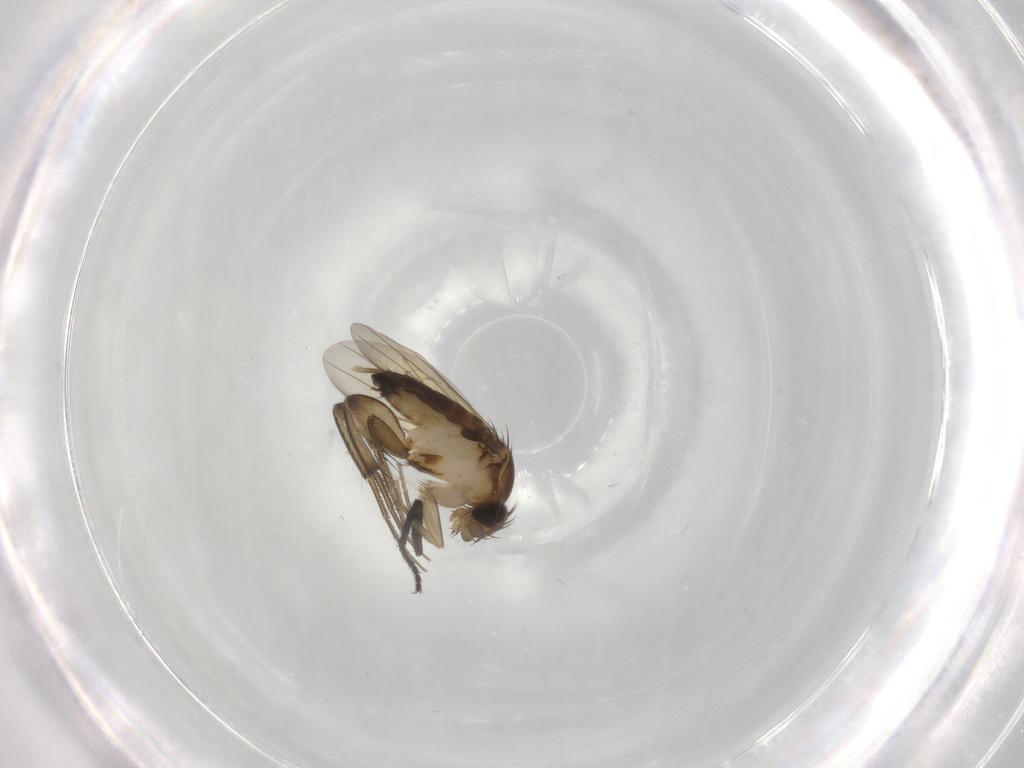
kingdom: Animalia
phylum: Arthropoda
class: Insecta
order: Diptera
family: Phoridae
